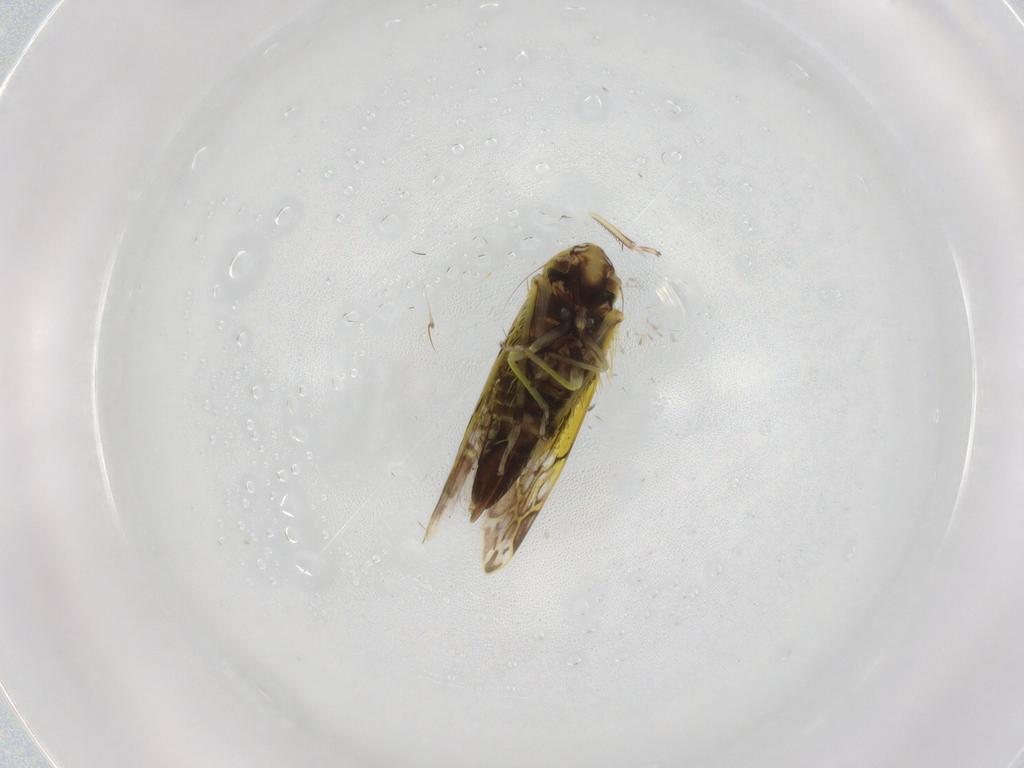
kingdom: Animalia
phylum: Arthropoda
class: Insecta
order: Hemiptera
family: Cicadellidae
